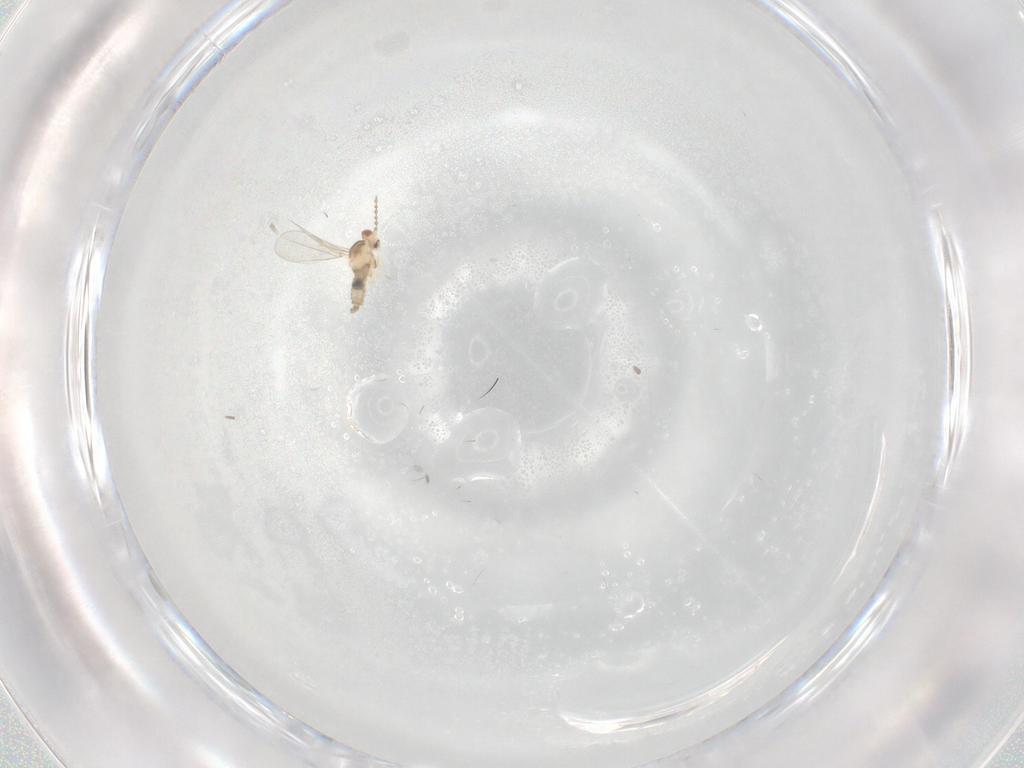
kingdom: Animalia
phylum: Arthropoda
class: Insecta
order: Diptera
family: Cecidomyiidae
